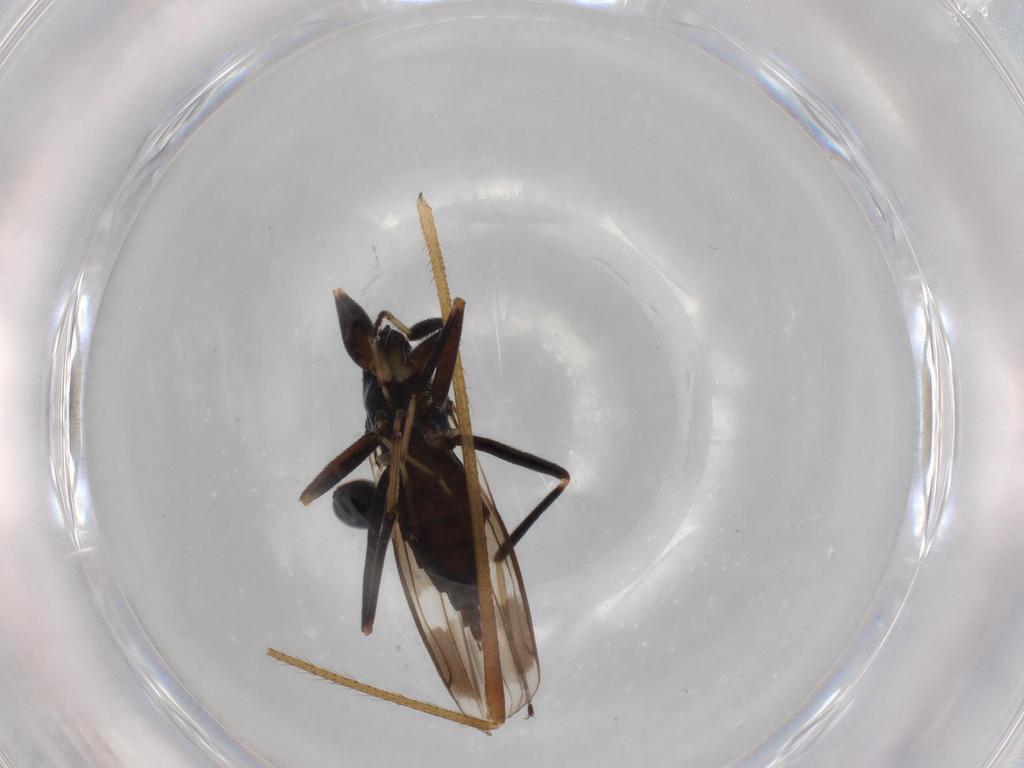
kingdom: Animalia
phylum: Arthropoda
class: Insecta
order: Diptera
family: Hybotidae
